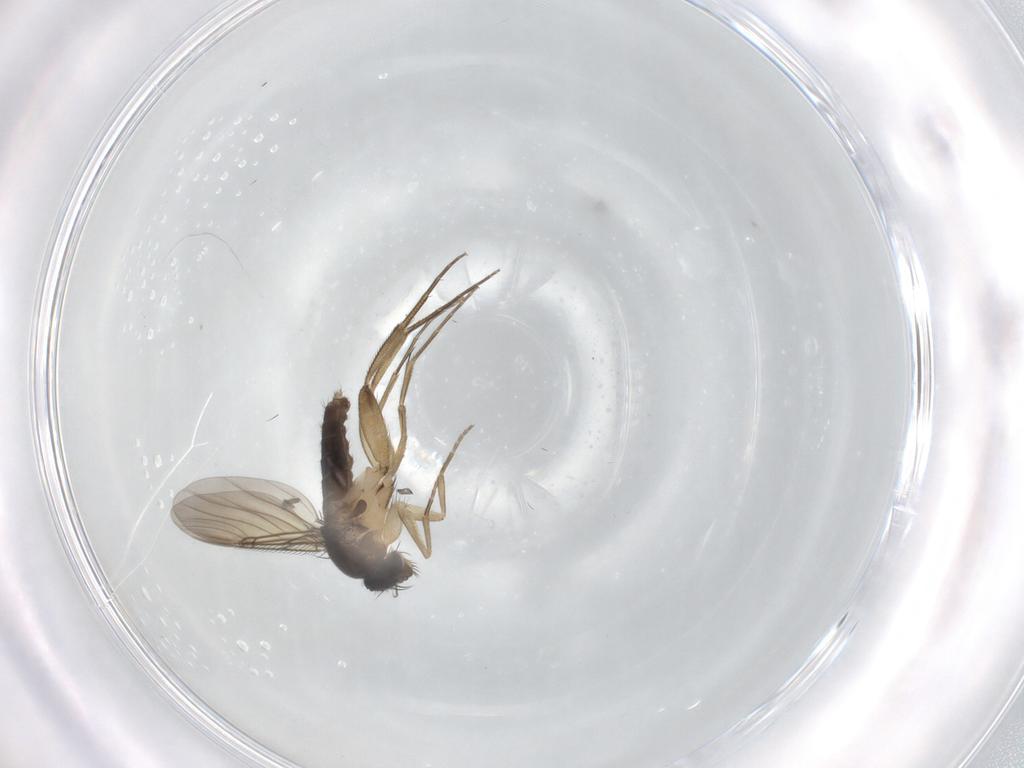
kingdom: Animalia
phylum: Arthropoda
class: Insecta
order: Diptera
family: Phoridae
